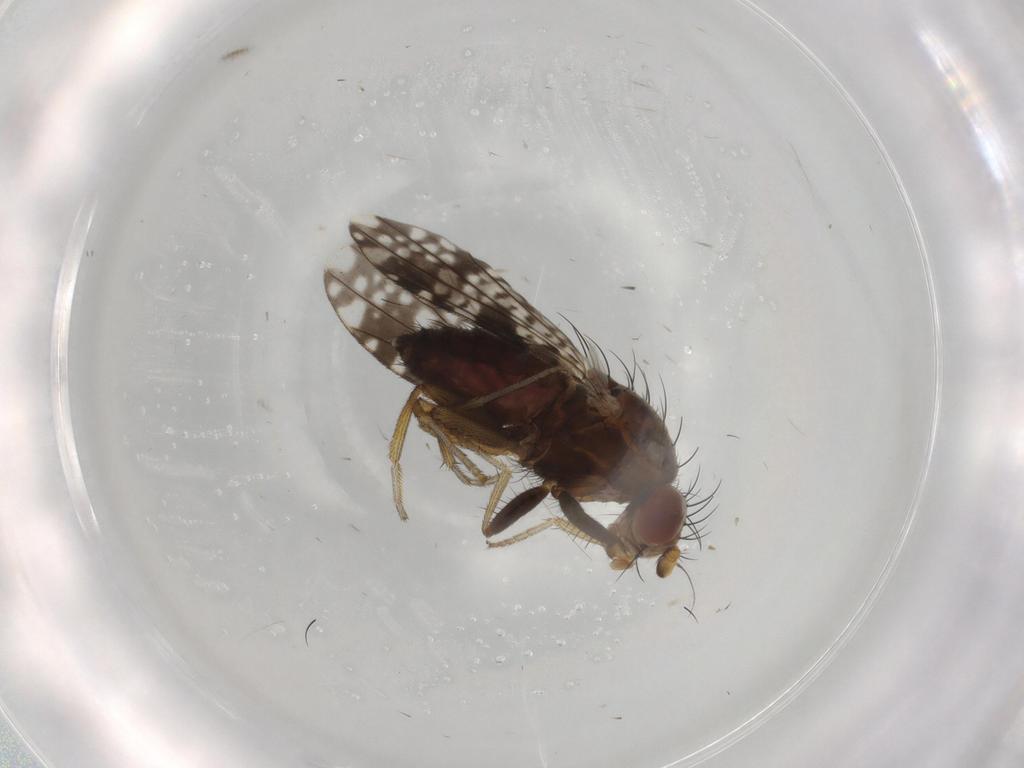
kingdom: Animalia
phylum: Arthropoda
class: Insecta
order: Diptera
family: Tephritidae
